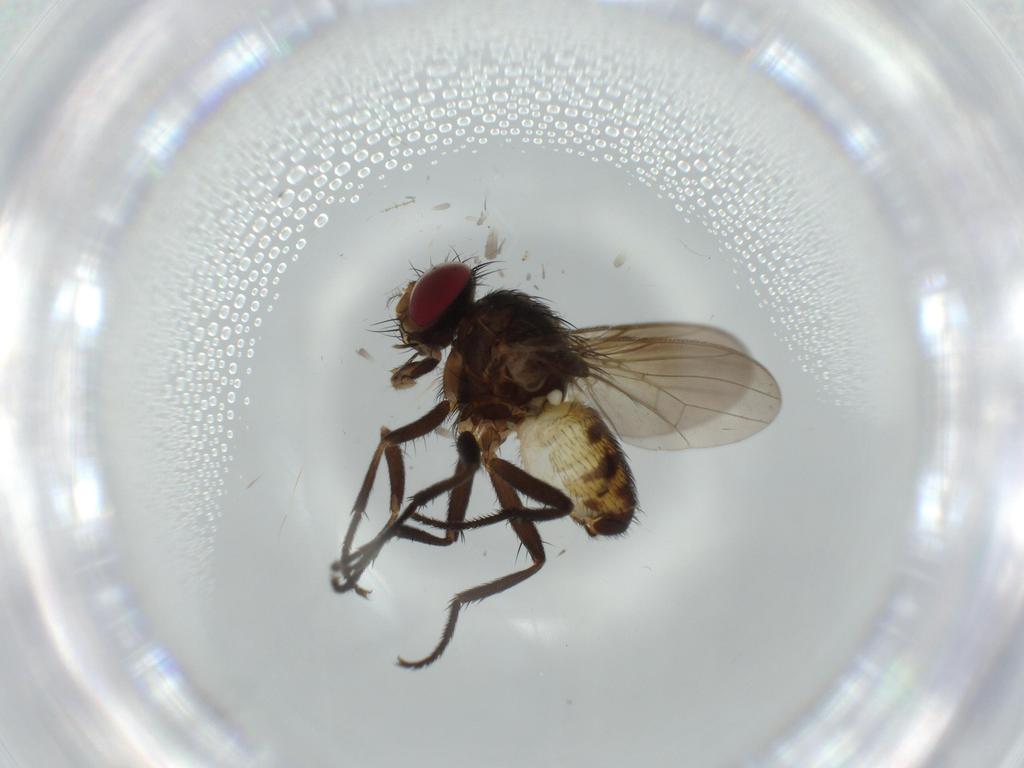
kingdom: Animalia
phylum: Arthropoda
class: Insecta
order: Diptera
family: Anthomyiidae
